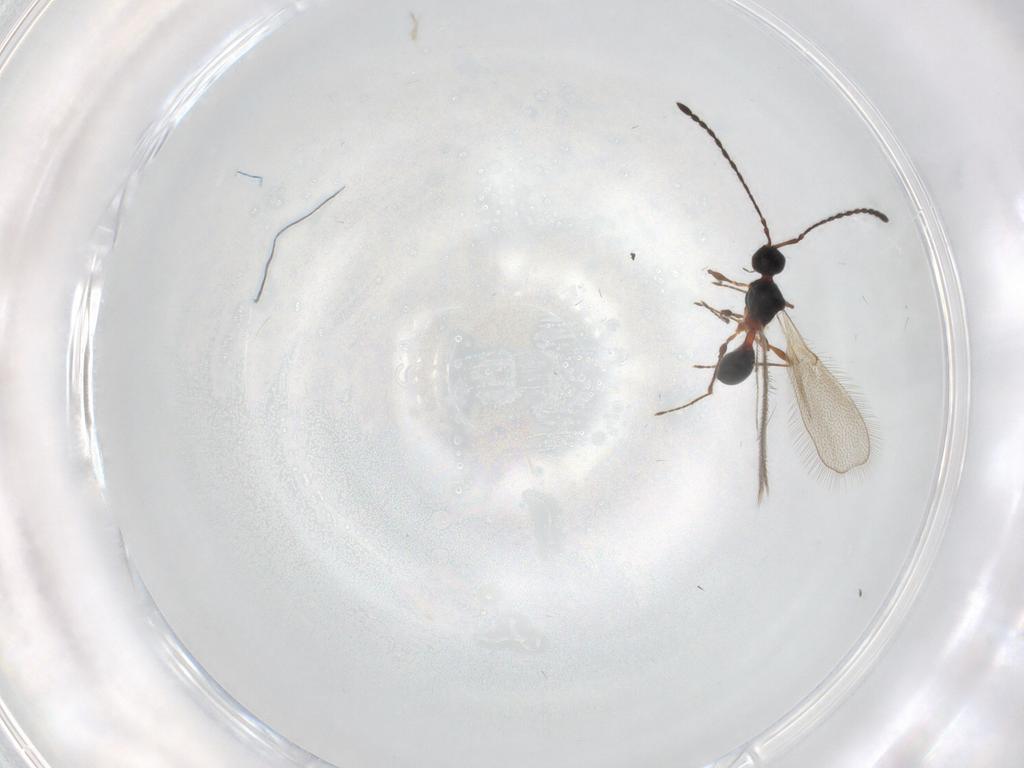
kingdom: Animalia
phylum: Arthropoda
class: Insecta
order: Hymenoptera
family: Diapriidae
